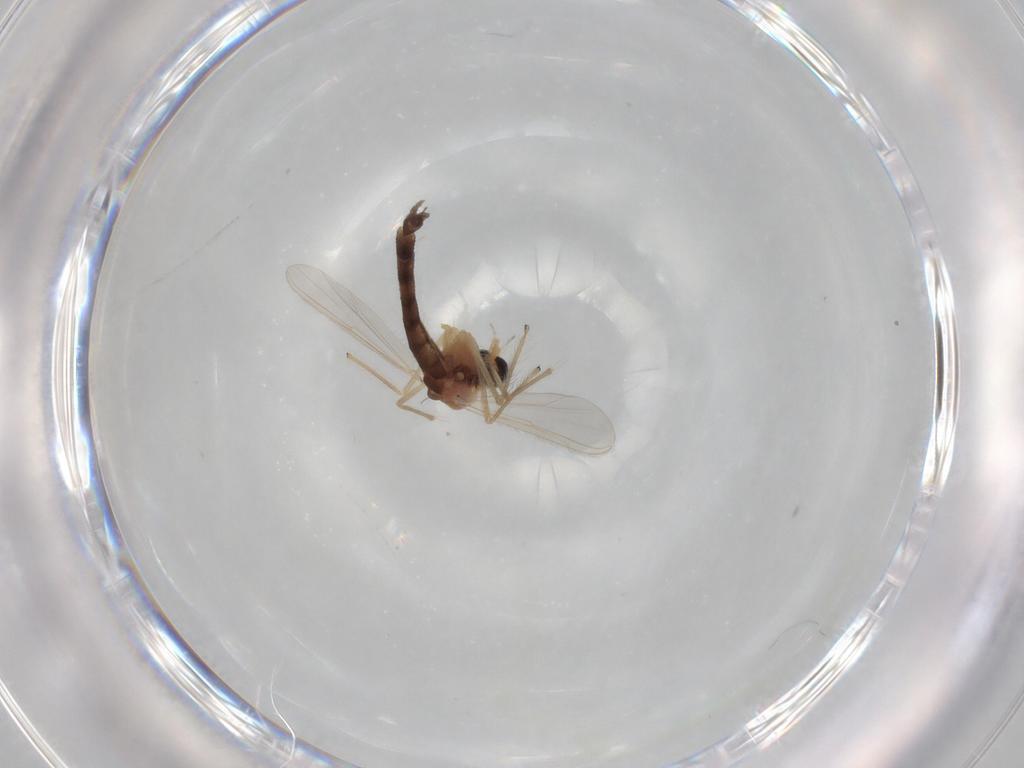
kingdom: Animalia
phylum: Arthropoda
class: Insecta
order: Diptera
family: Chironomidae
